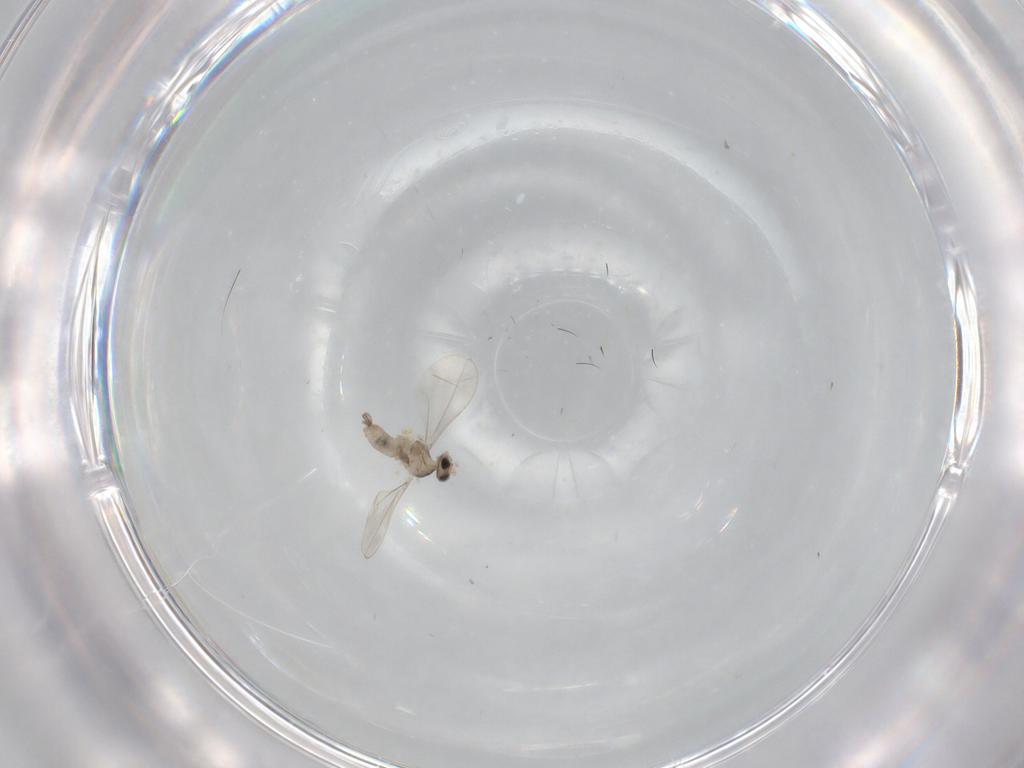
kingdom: Animalia
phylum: Arthropoda
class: Insecta
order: Diptera
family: Cecidomyiidae
